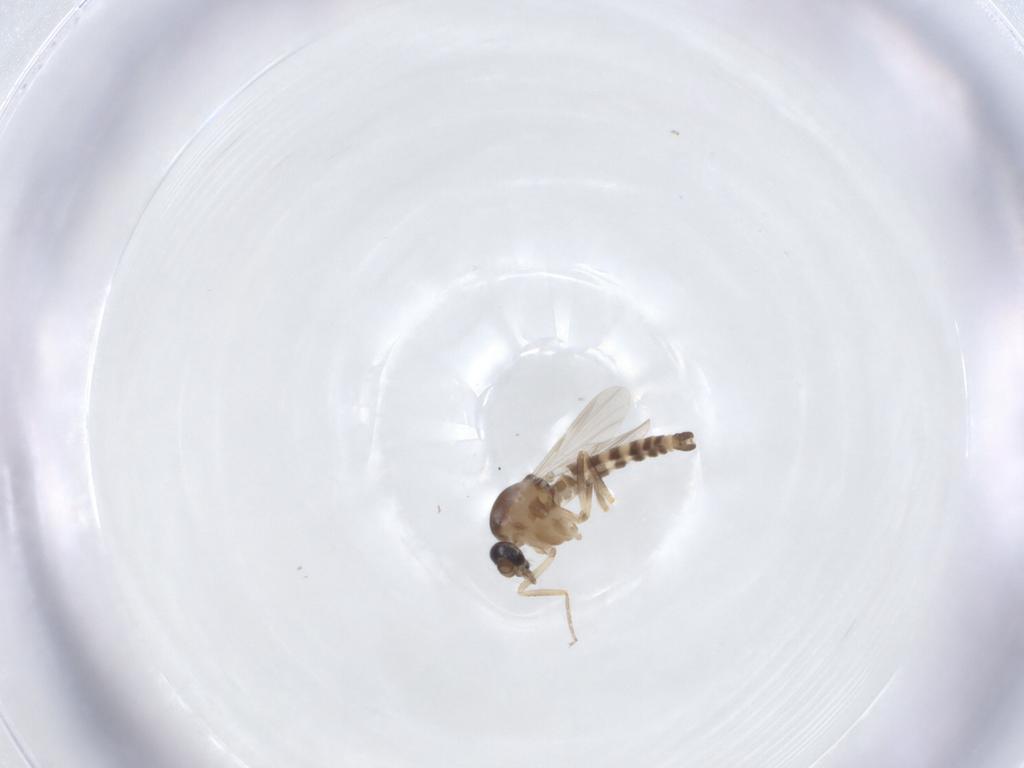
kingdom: Animalia
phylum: Arthropoda
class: Insecta
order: Diptera
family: Ceratopogonidae
